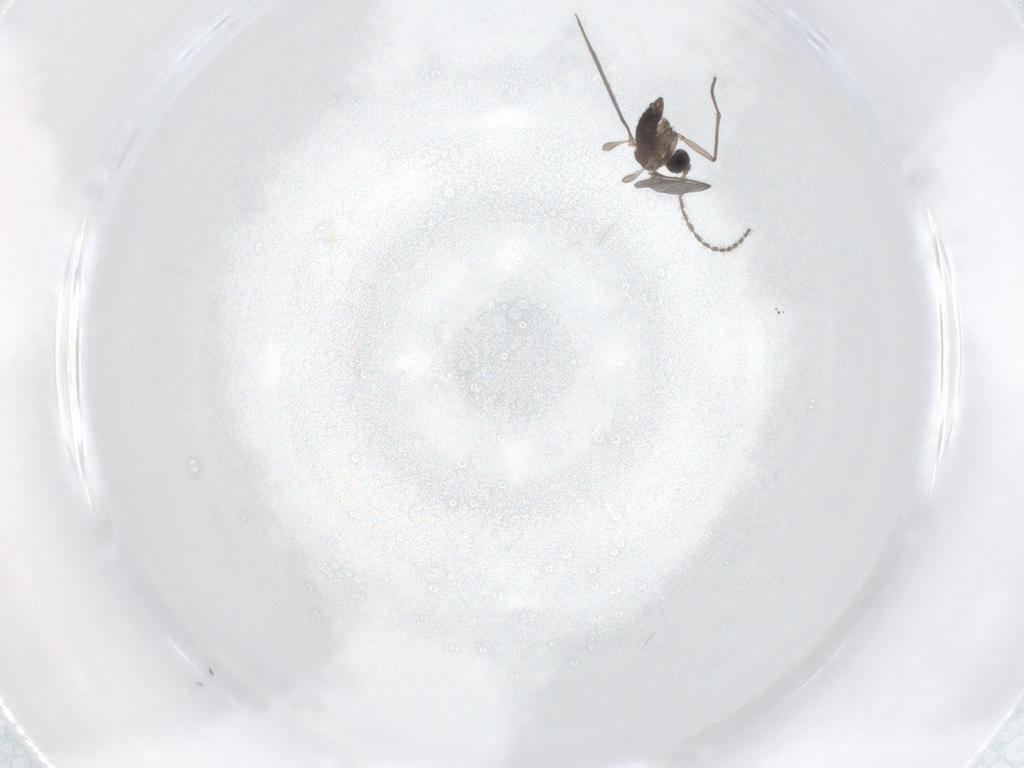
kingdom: Animalia
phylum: Arthropoda
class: Insecta
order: Diptera
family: Sciaridae
